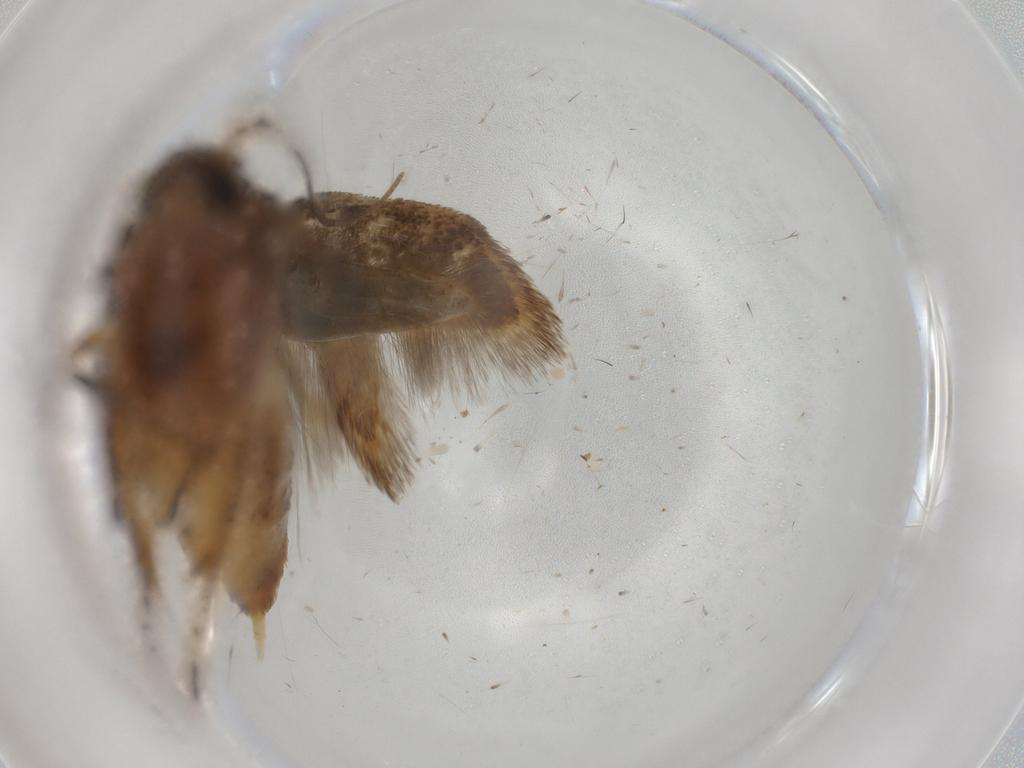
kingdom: Animalia
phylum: Arthropoda
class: Insecta
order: Lepidoptera
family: Coleophoridae
